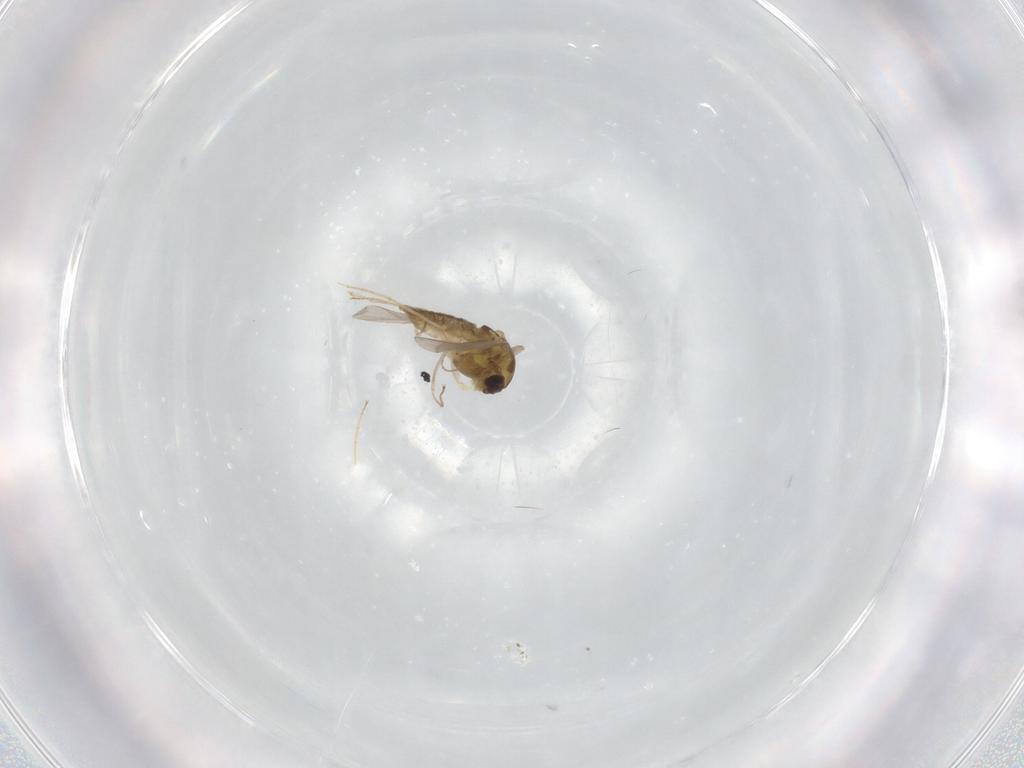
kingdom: Animalia
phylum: Arthropoda
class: Insecta
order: Diptera
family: Chironomidae
